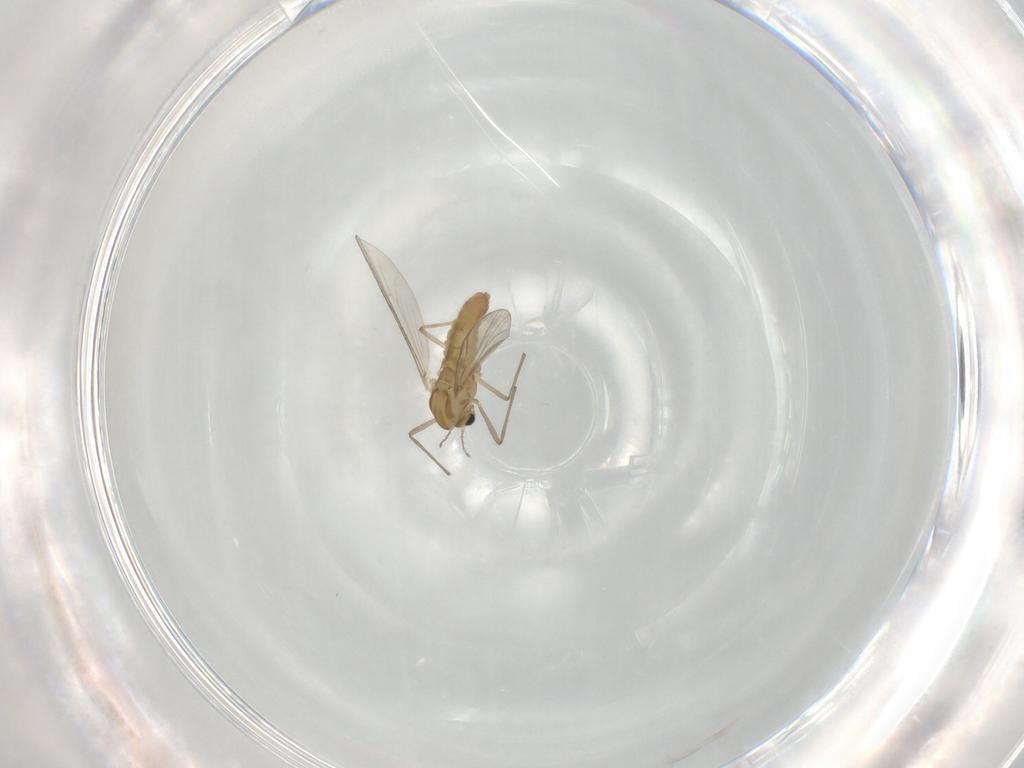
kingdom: Animalia
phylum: Arthropoda
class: Insecta
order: Diptera
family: Chironomidae
